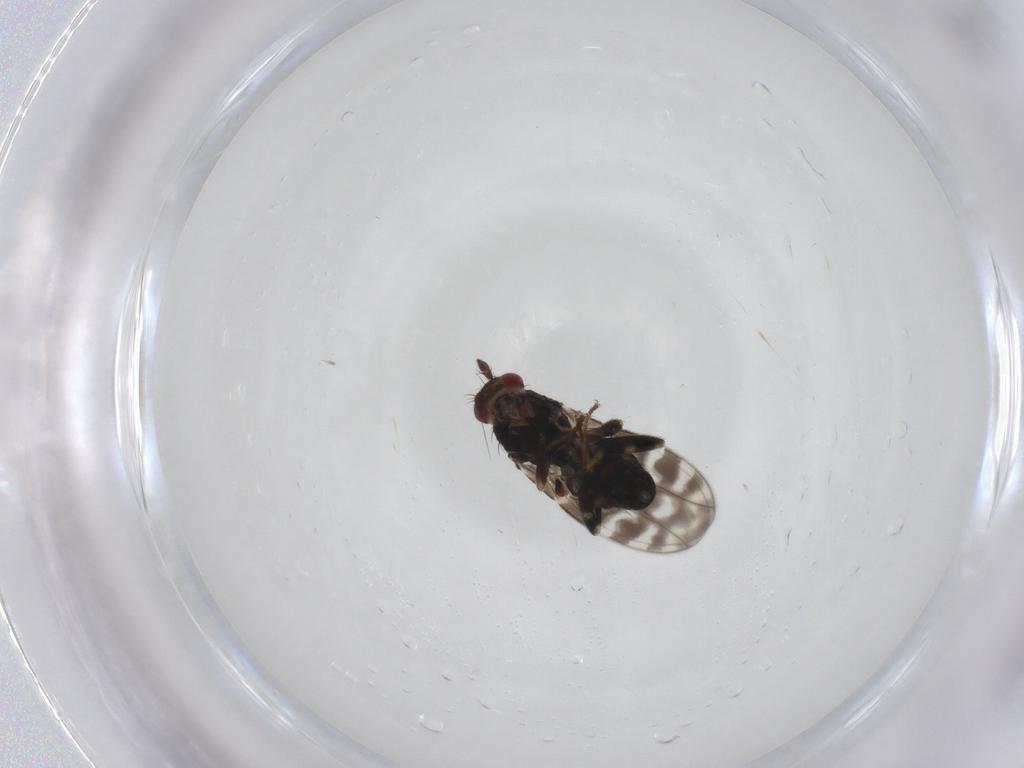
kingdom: Animalia
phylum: Arthropoda
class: Insecta
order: Diptera
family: Sphaeroceridae
